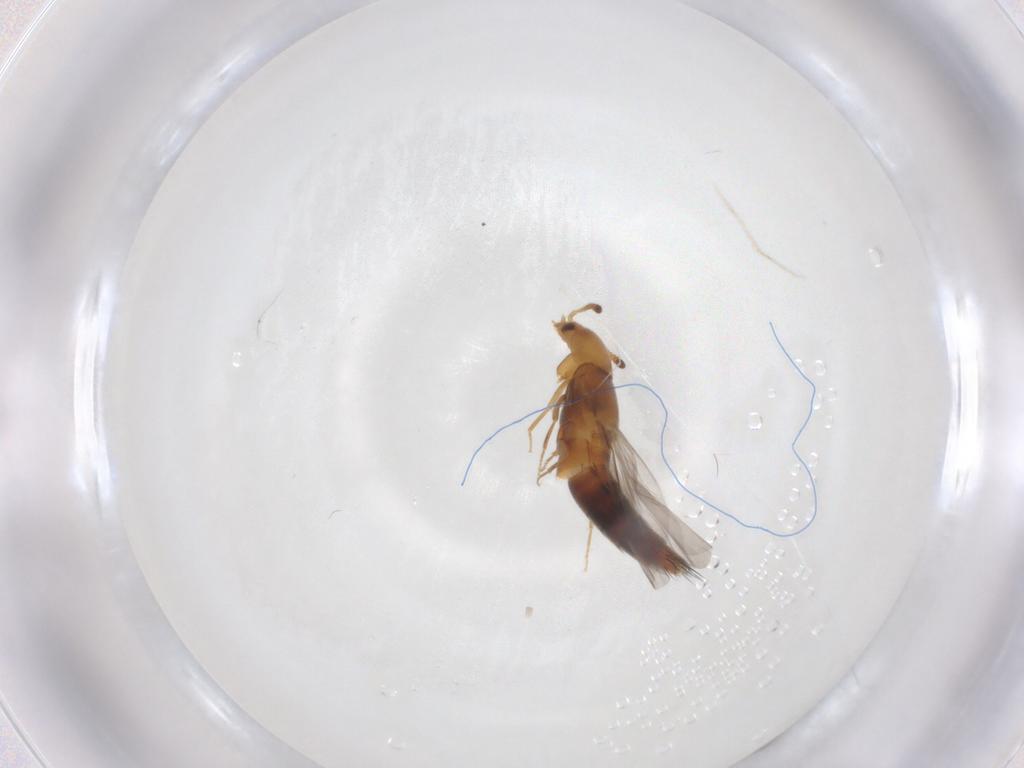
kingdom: Animalia
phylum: Arthropoda
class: Insecta
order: Coleoptera
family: Staphylinidae
